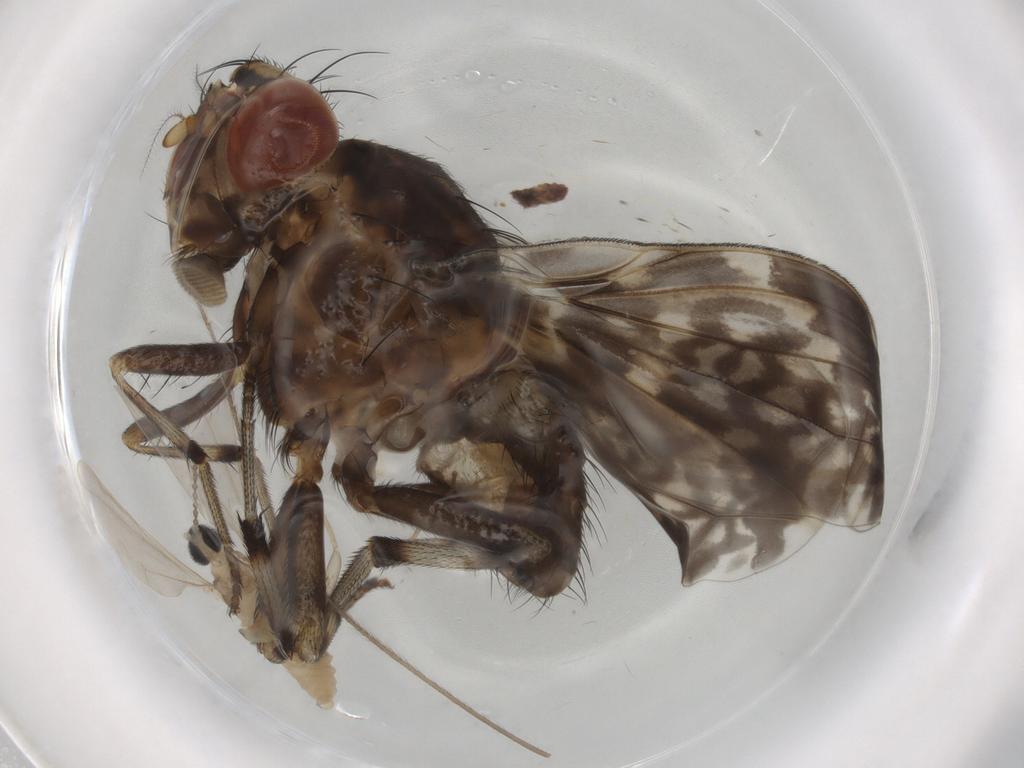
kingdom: Animalia
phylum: Arthropoda
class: Insecta
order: Diptera
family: Cecidomyiidae
